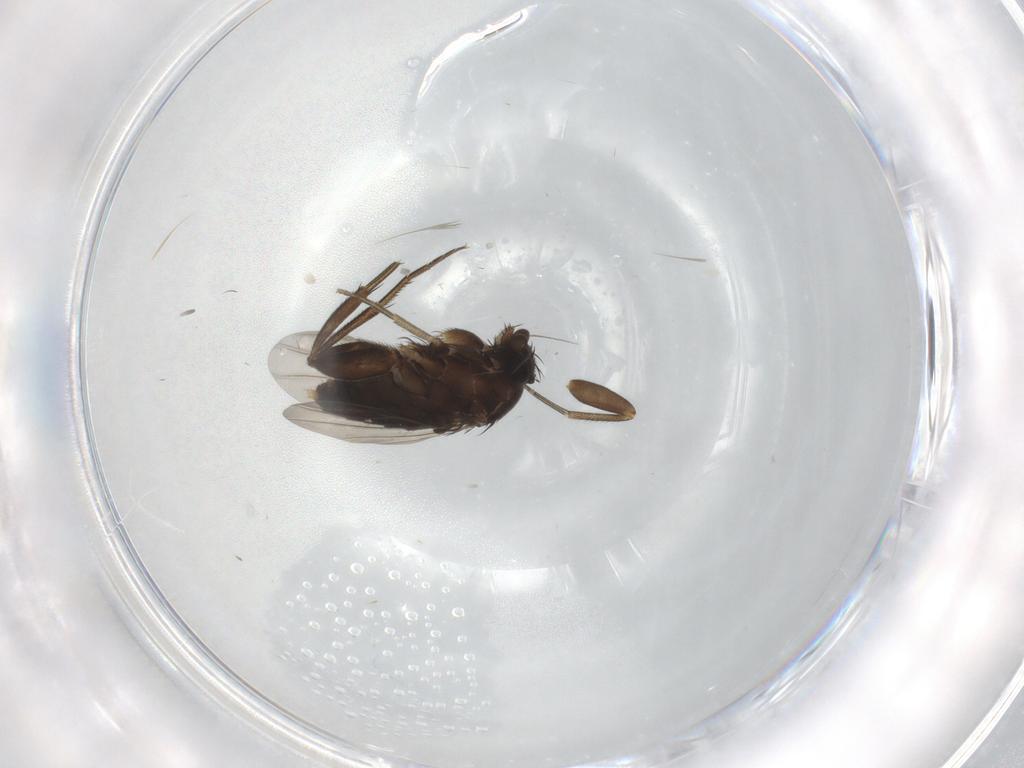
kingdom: Animalia
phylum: Arthropoda
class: Insecta
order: Diptera
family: Cecidomyiidae
